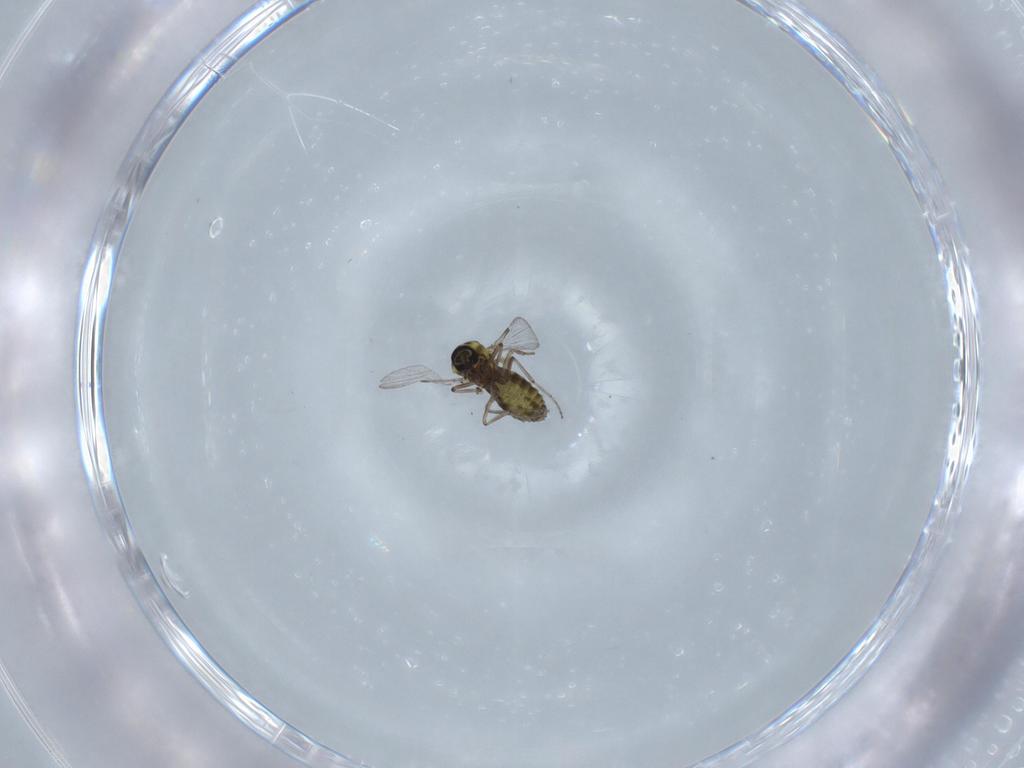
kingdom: Animalia
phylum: Arthropoda
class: Insecta
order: Diptera
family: Ceratopogonidae
